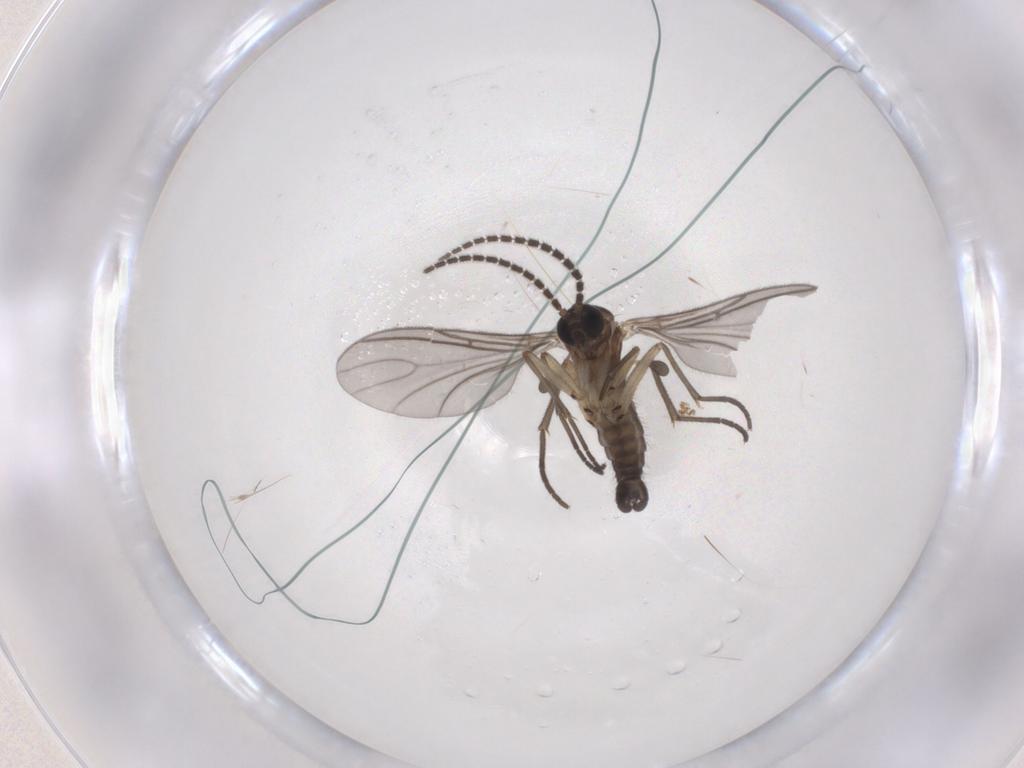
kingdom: Animalia
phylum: Arthropoda
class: Insecta
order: Diptera
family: Sciaridae
